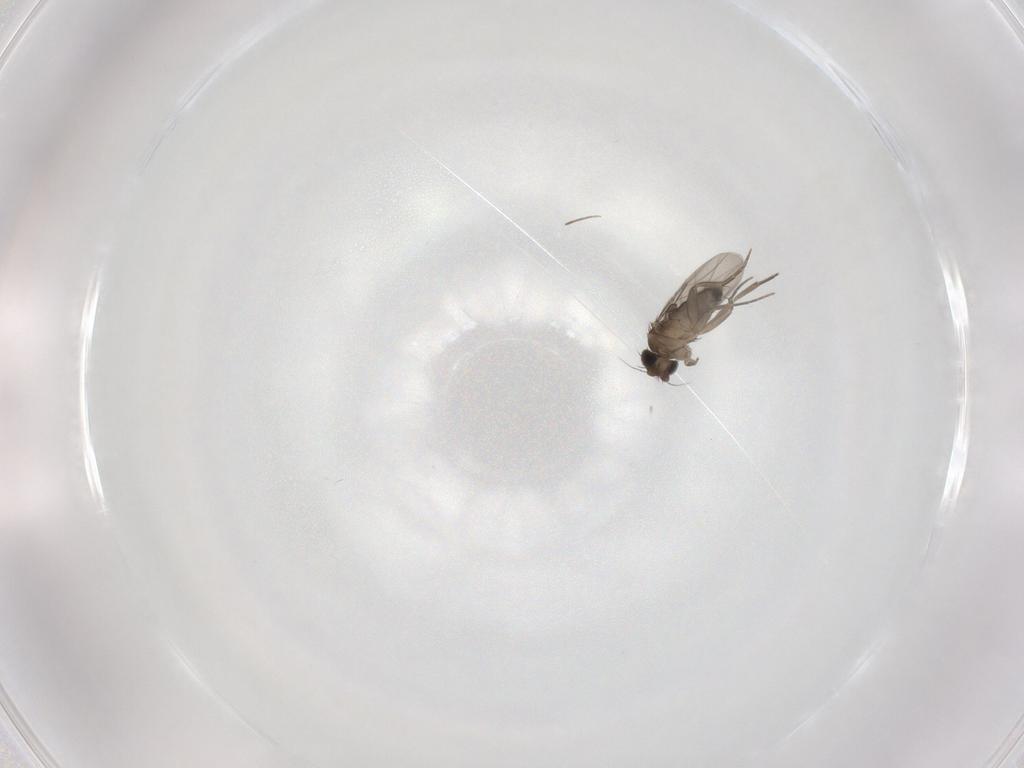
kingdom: Animalia
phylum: Arthropoda
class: Insecta
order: Diptera
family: Phoridae
